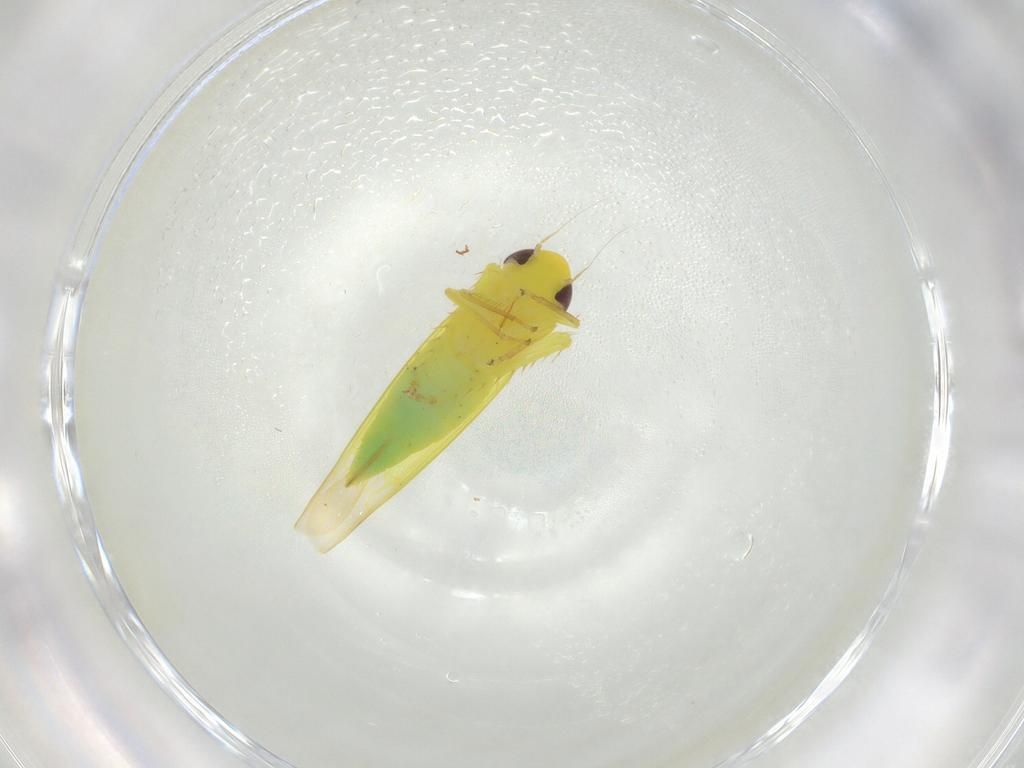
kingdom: Animalia
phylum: Arthropoda
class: Insecta
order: Hemiptera
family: Cicadellidae
